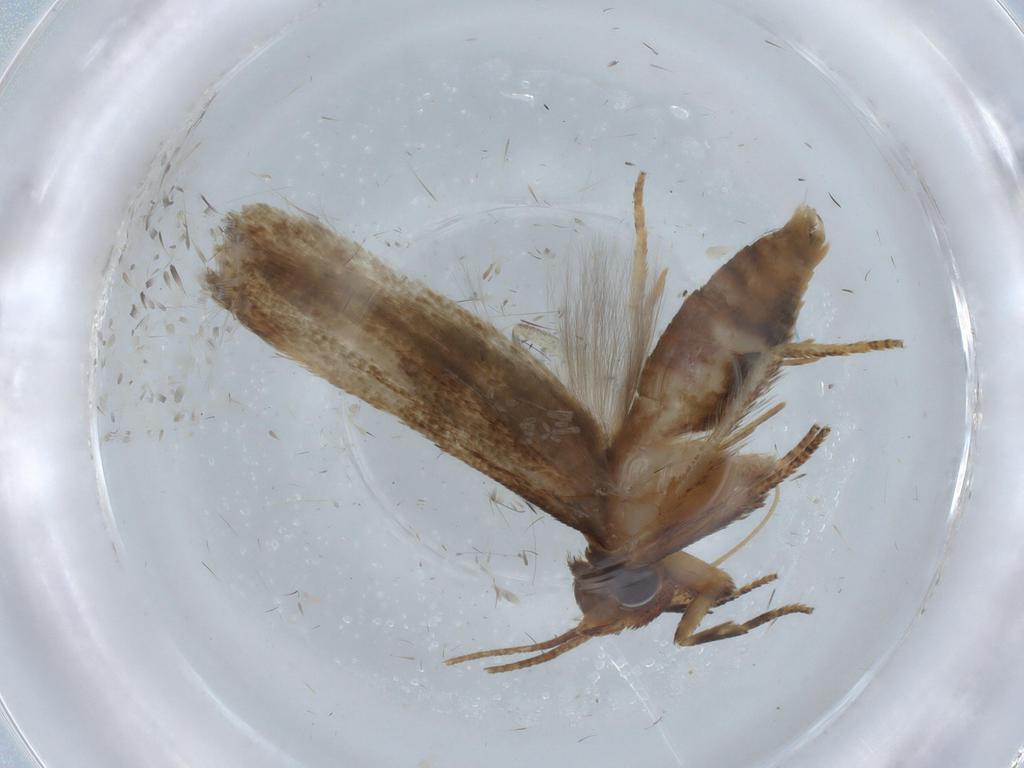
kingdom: Animalia
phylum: Arthropoda
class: Insecta
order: Lepidoptera
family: Blastobasidae
